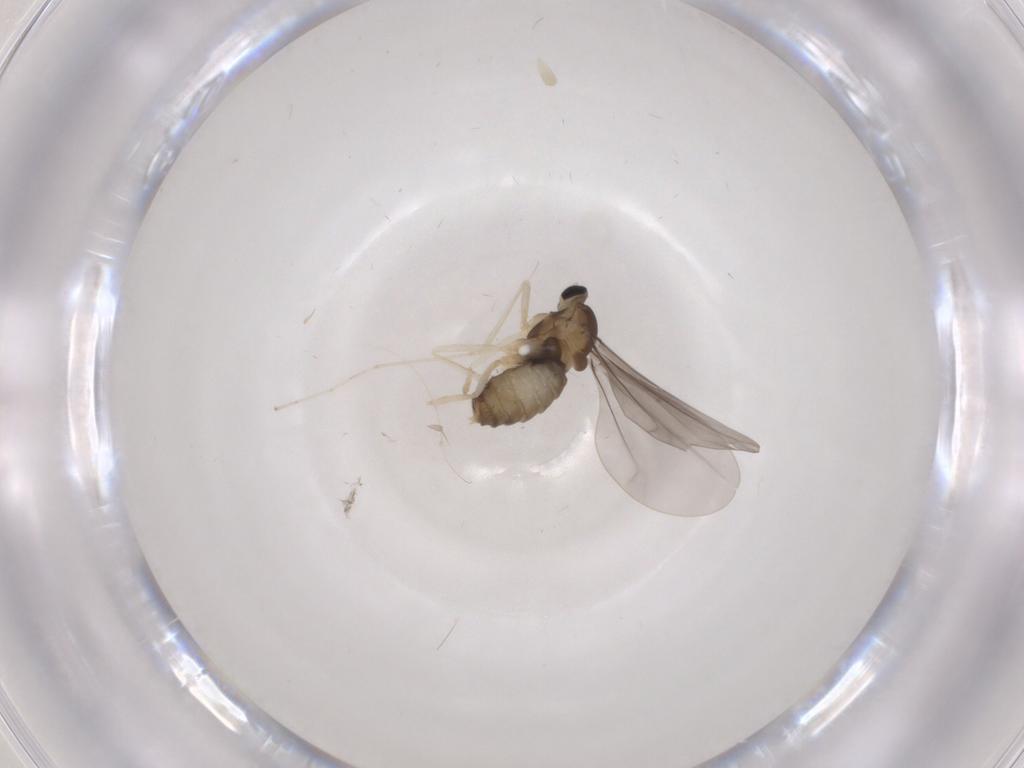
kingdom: Animalia
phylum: Arthropoda
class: Insecta
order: Diptera
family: Cecidomyiidae
